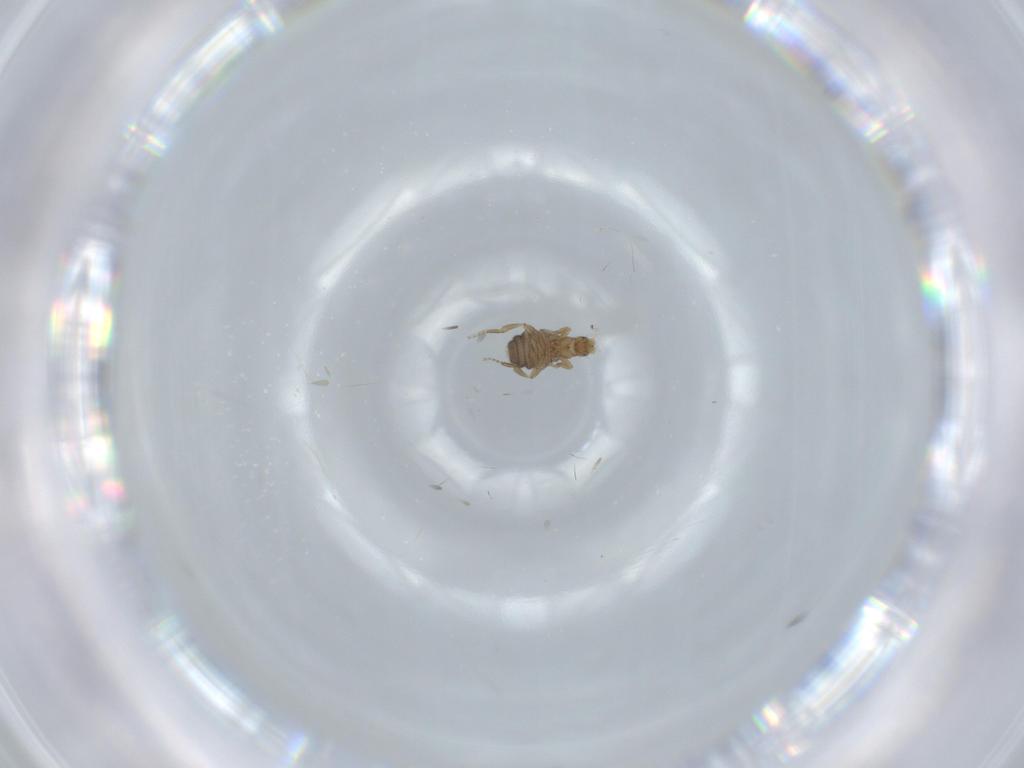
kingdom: Animalia
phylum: Arthropoda
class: Insecta
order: Diptera
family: Phoridae
